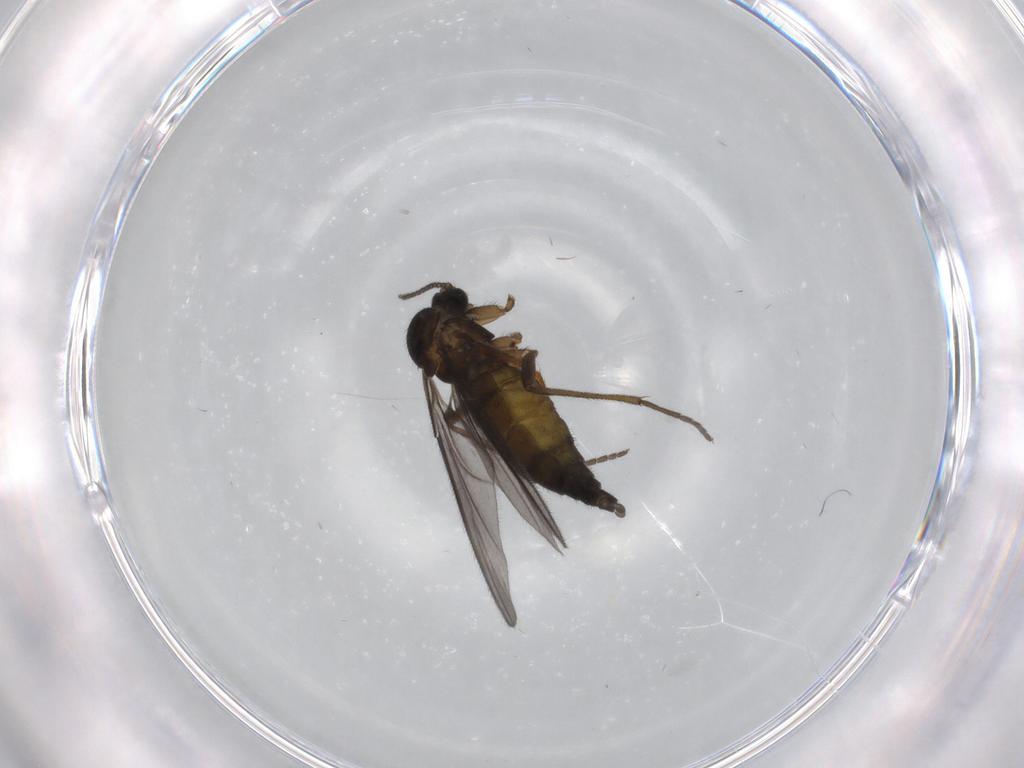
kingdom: Animalia
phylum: Arthropoda
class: Insecta
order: Diptera
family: Sciaridae
